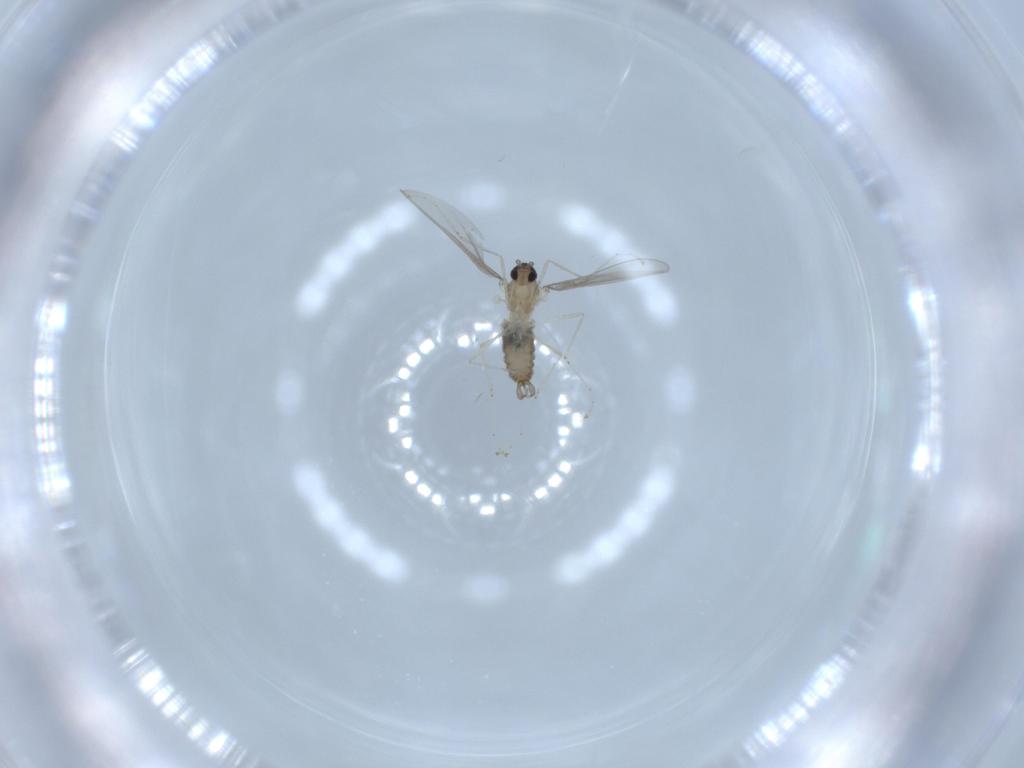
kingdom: Animalia
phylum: Arthropoda
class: Insecta
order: Diptera
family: Cecidomyiidae
